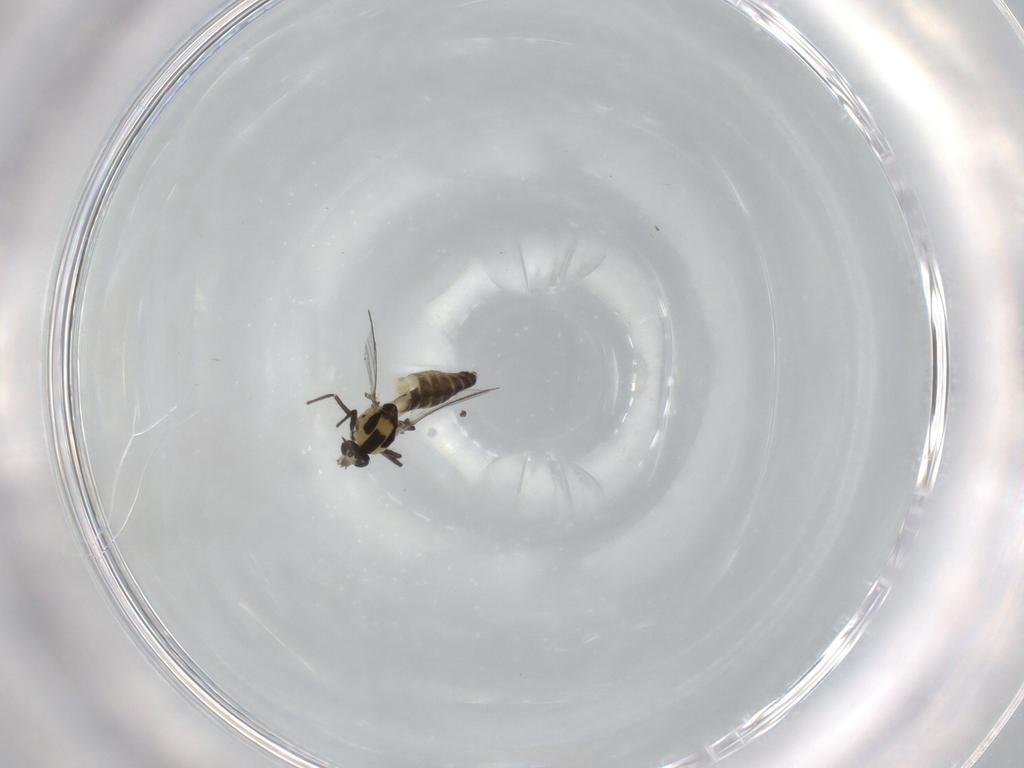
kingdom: Animalia
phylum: Arthropoda
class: Insecta
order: Diptera
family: Chironomidae
